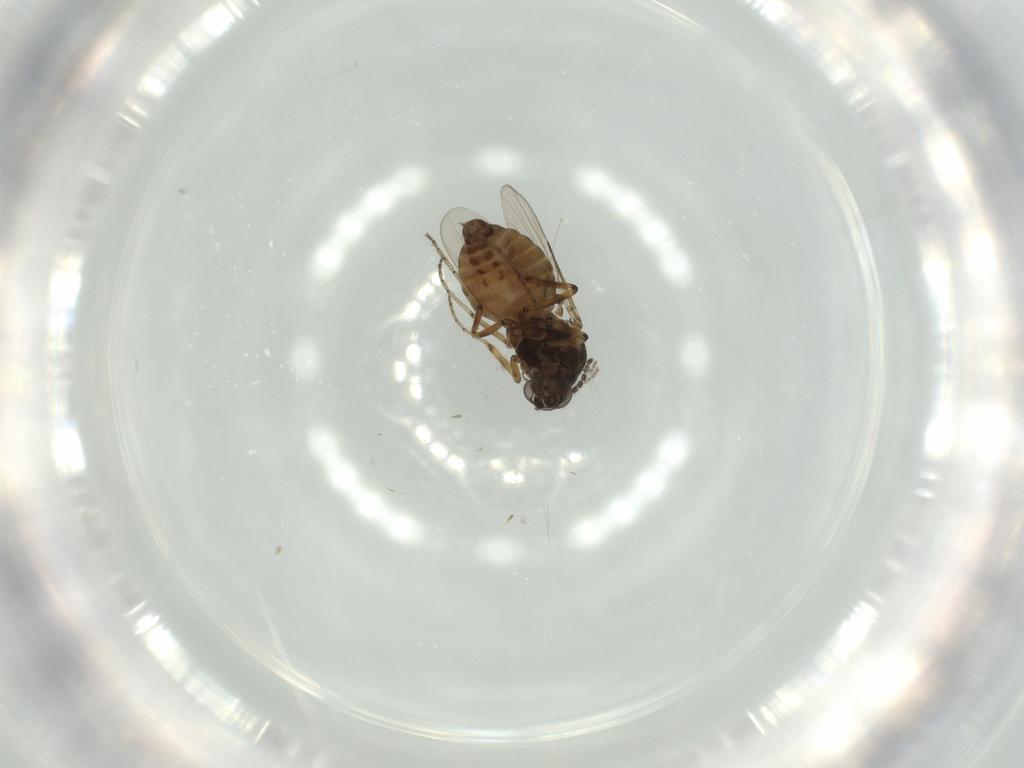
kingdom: Animalia
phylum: Arthropoda
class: Insecta
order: Diptera
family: Ceratopogonidae
